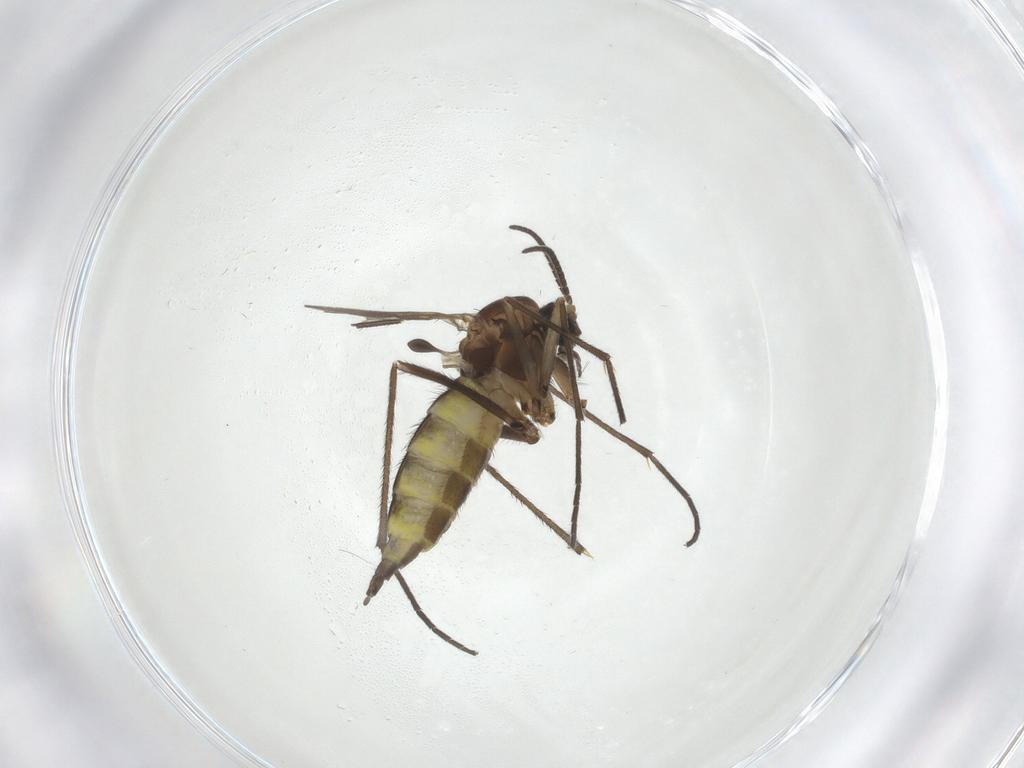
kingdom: Animalia
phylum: Arthropoda
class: Insecta
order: Diptera
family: Sciaridae
